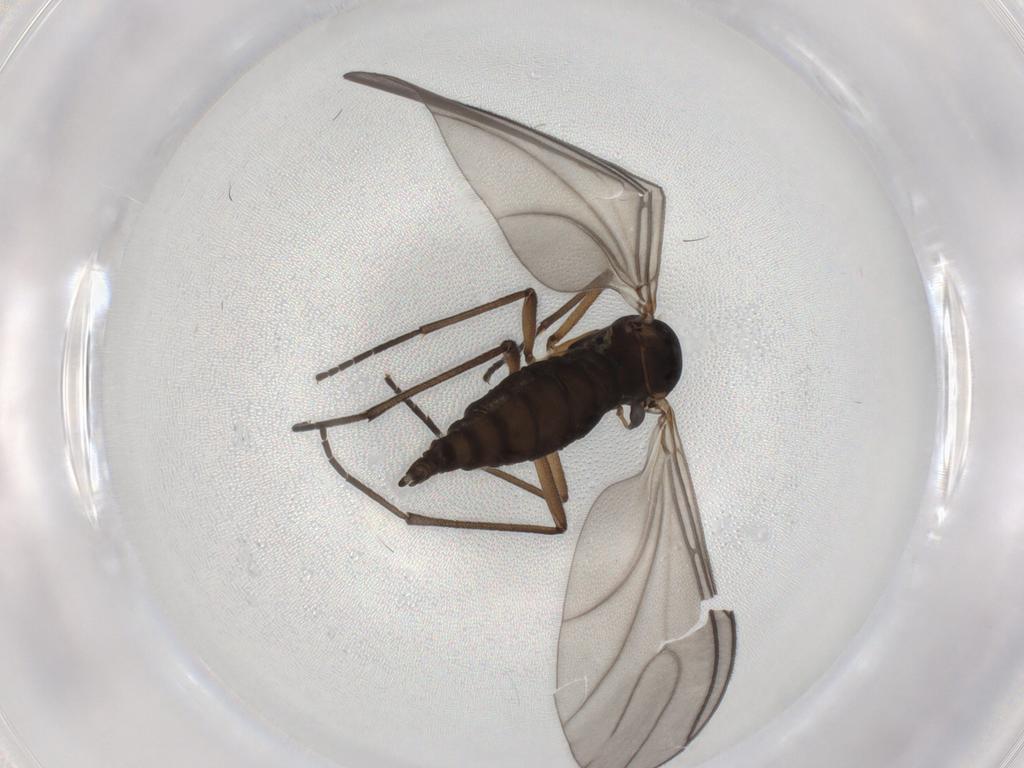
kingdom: Animalia
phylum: Arthropoda
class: Insecta
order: Diptera
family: Sciaridae
